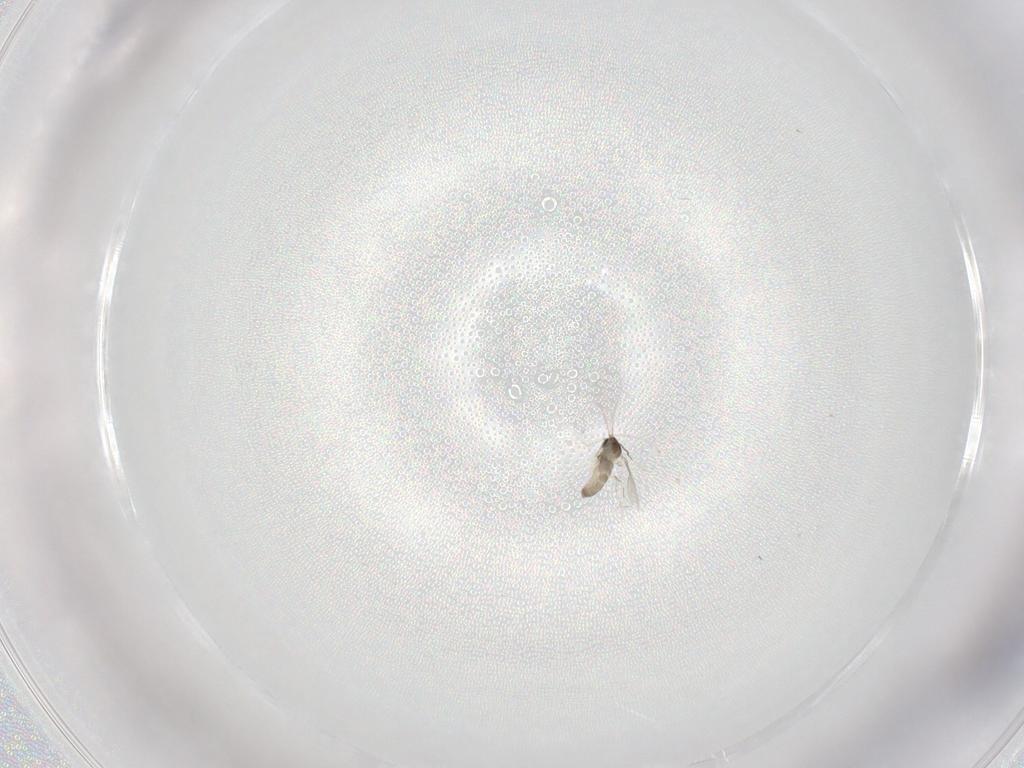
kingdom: Animalia
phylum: Arthropoda
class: Insecta
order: Diptera
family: Chironomidae
